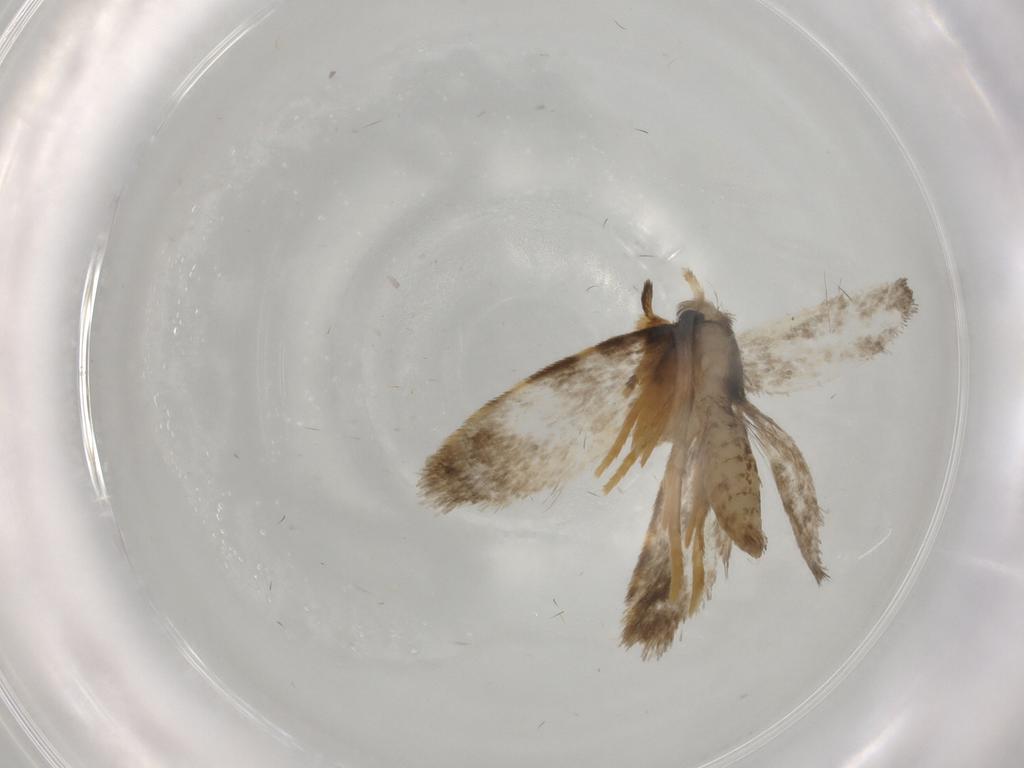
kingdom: Animalia
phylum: Arthropoda
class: Insecta
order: Lepidoptera
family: Psychidae
